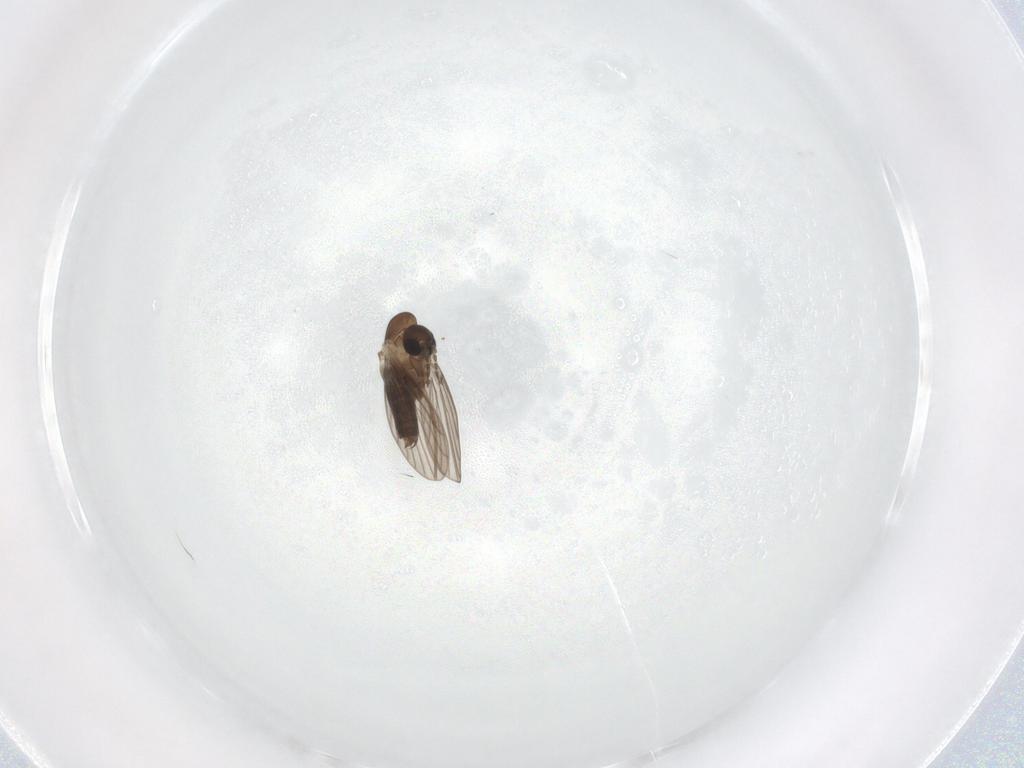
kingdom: Animalia
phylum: Arthropoda
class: Insecta
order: Diptera
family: Phoridae
